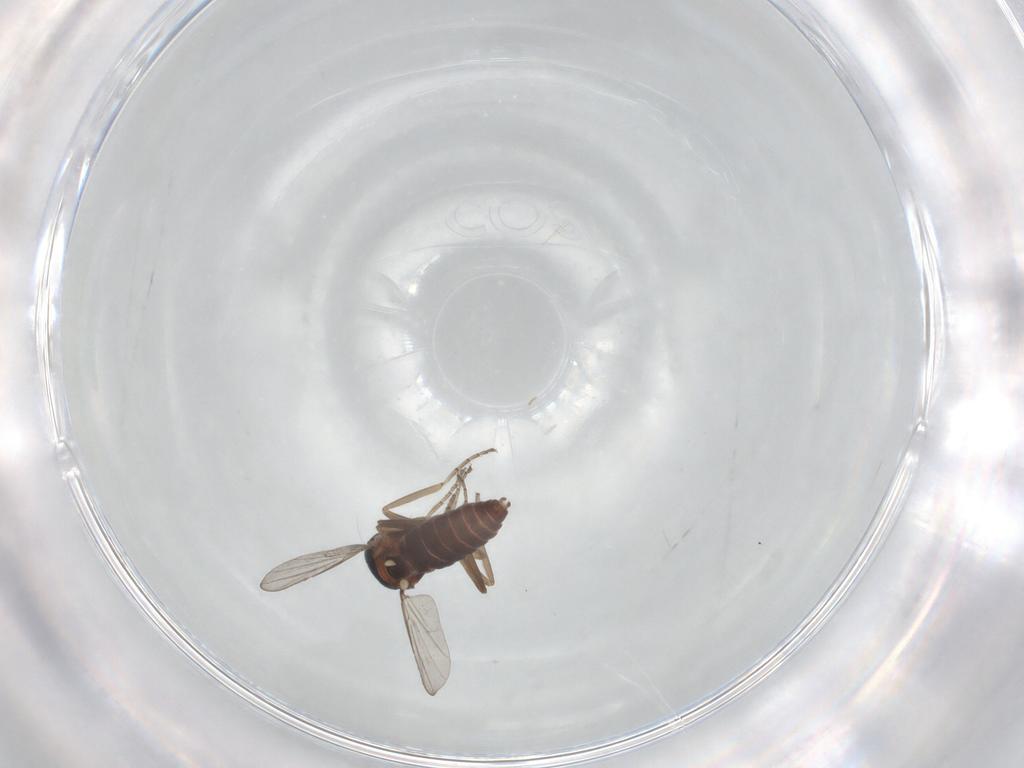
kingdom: Animalia
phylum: Arthropoda
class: Insecta
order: Diptera
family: Ceratopogonidae
